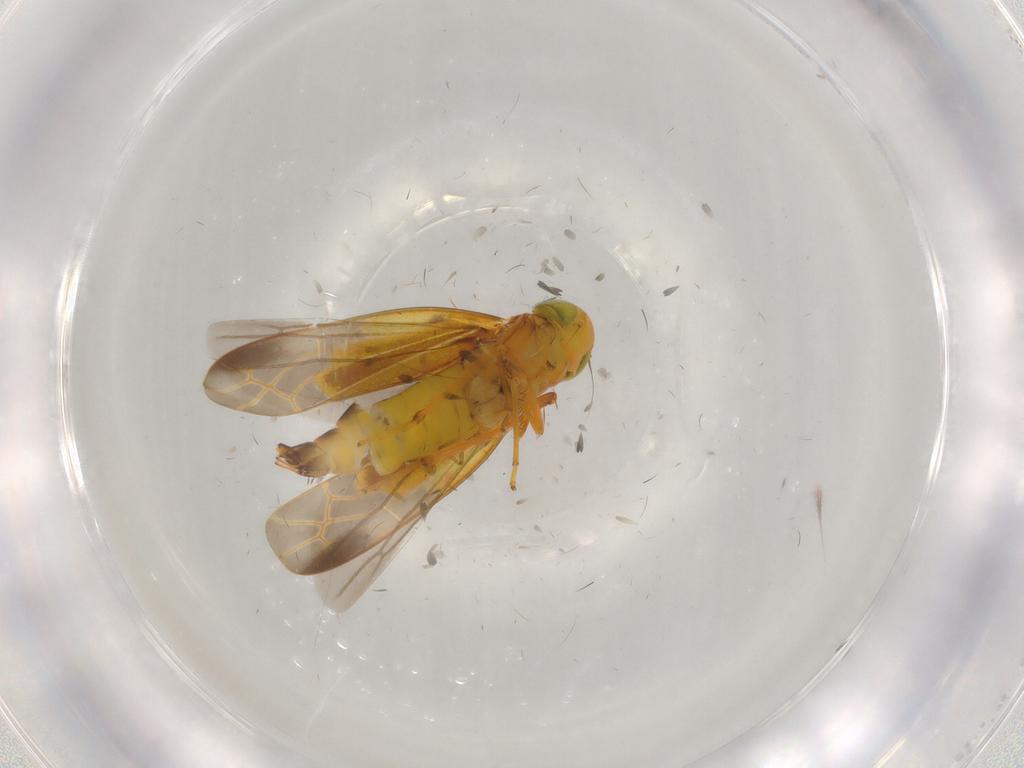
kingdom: Animalia
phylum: Arthropoda
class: Insecta
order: Hemiptera
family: Cicadellidae
